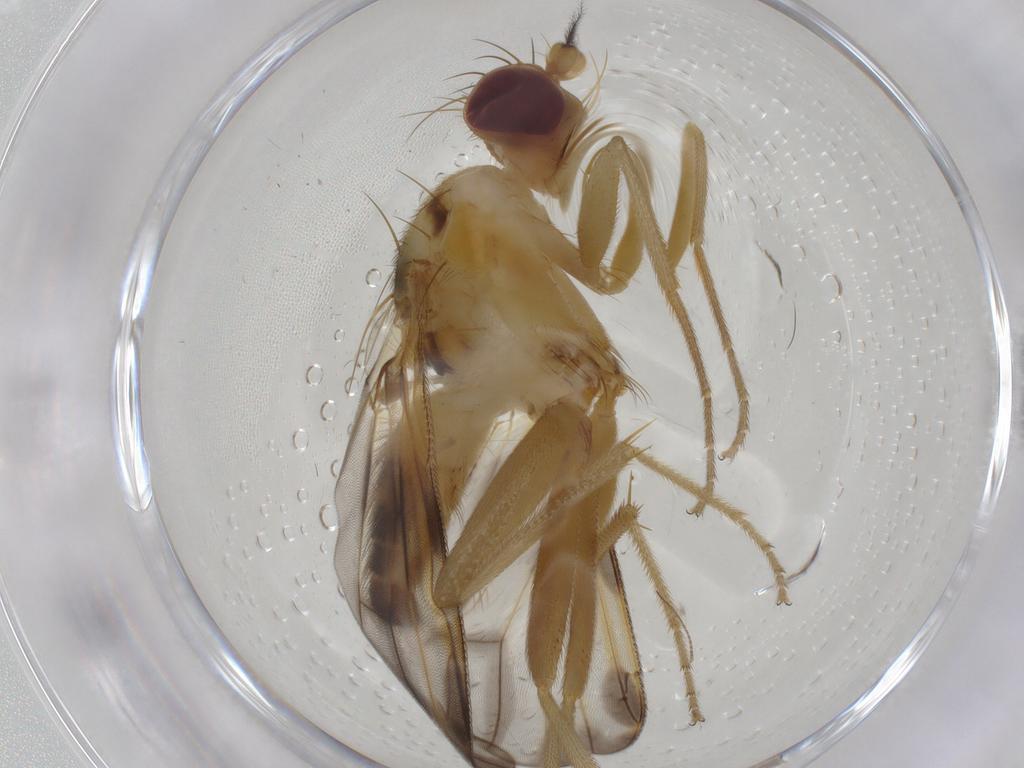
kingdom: Animalia
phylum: Arthropoda
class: Insecta
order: Diptera
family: Clusiidae
